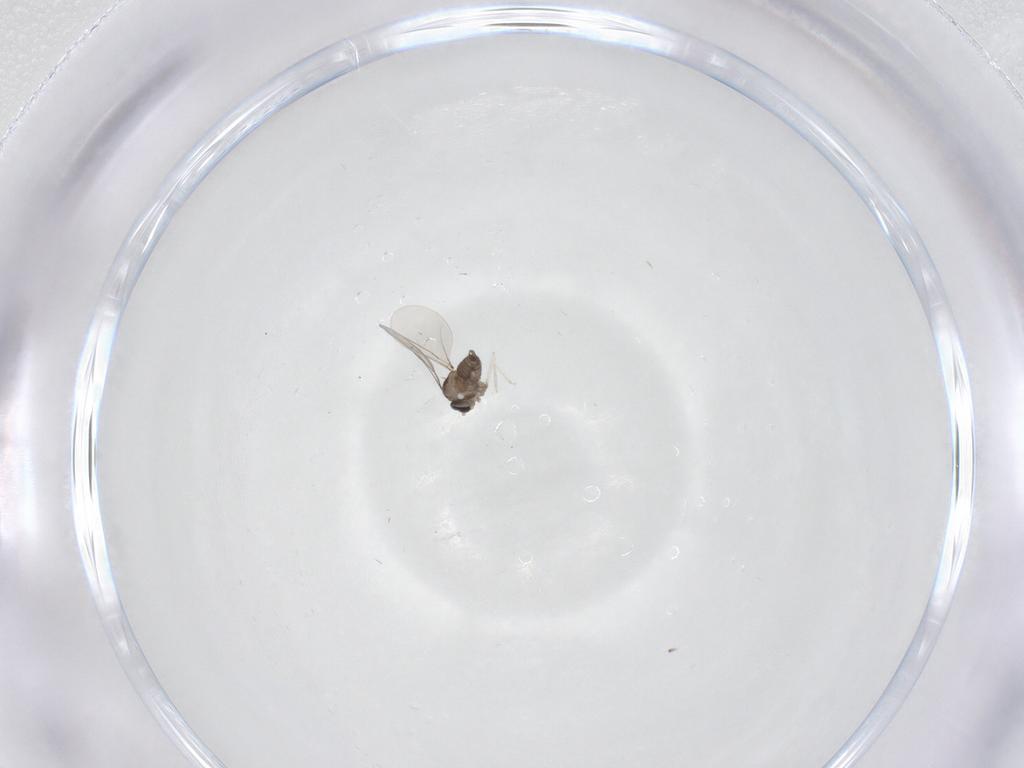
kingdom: Animalia
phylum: Arthropoda
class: Insecta
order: Diptera
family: Cecidomyiidae
